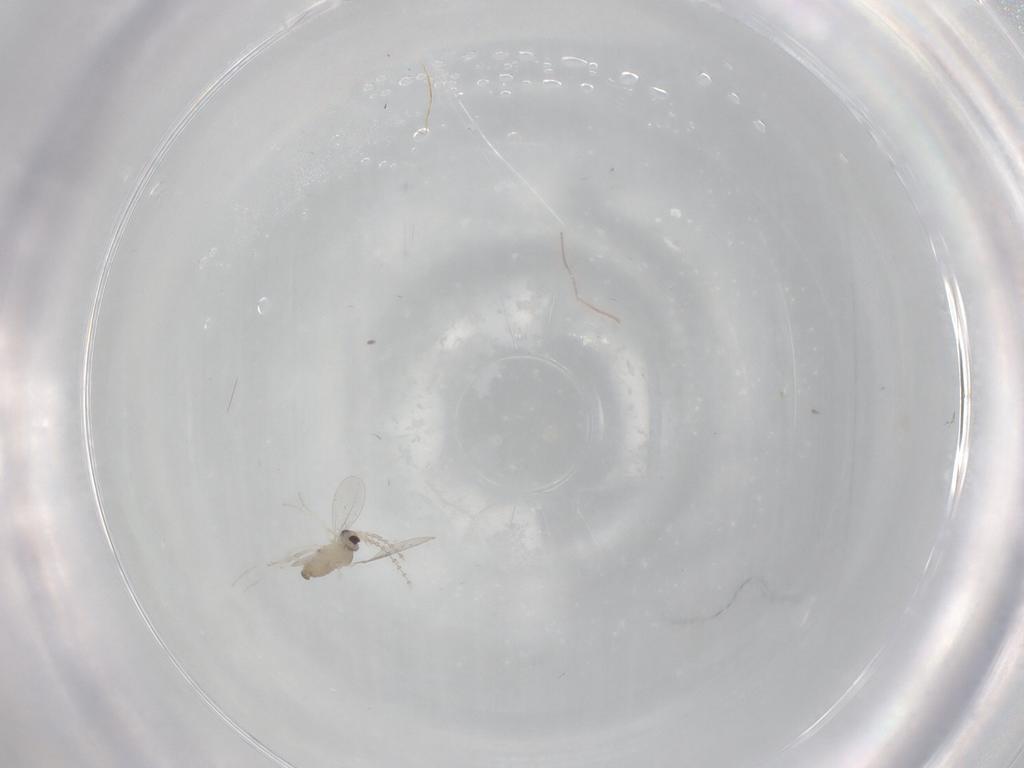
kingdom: Animalia
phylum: Arthropoda
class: Insecta
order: Diptera
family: Cecidomyiidae
